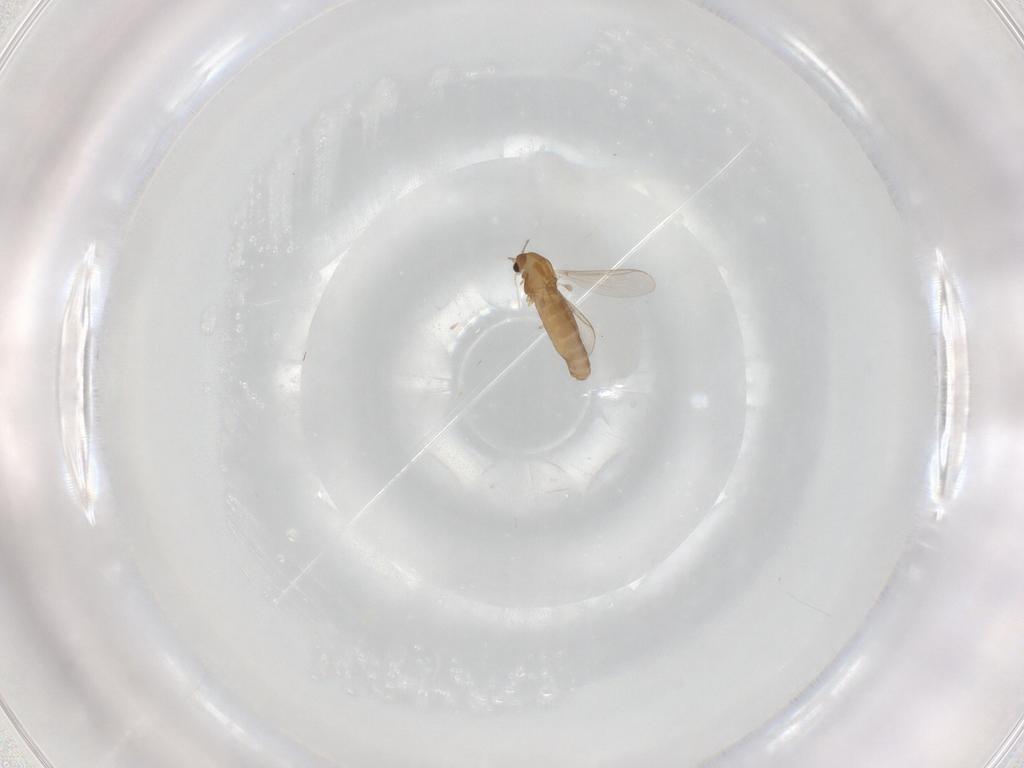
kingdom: Animalia
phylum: Arthropoda
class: Insecta
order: Diptera
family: Chironomidae
